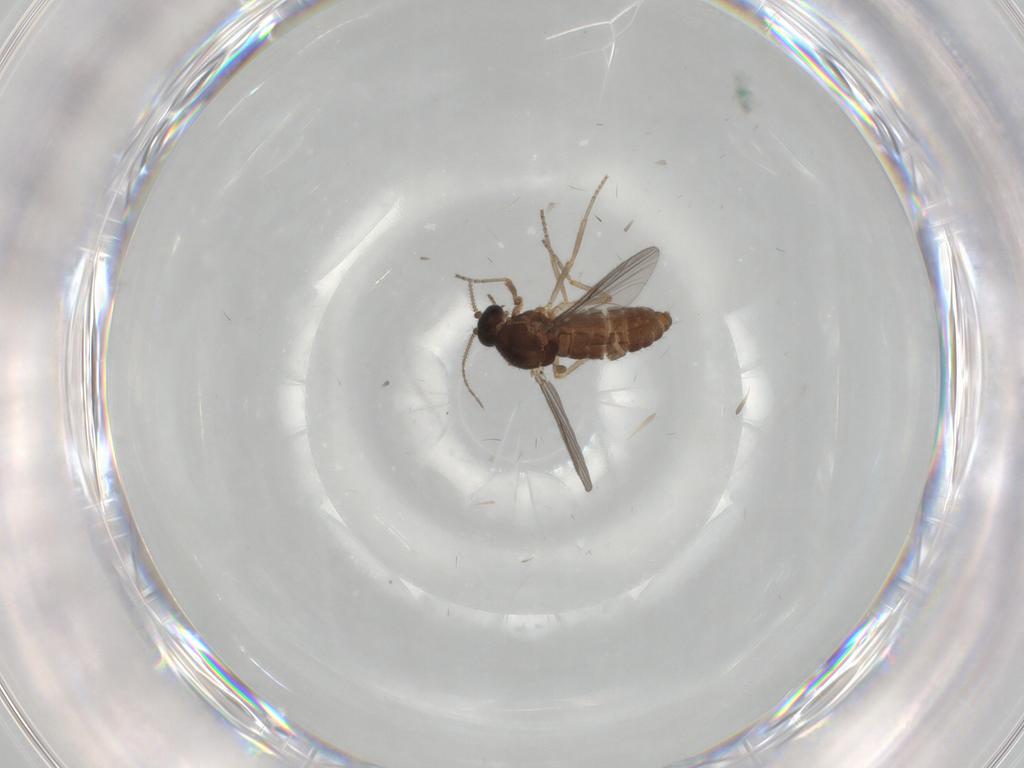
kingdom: Animalia
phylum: Arthropoda
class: Insecta
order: Diptera
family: Ceratopogonidae
